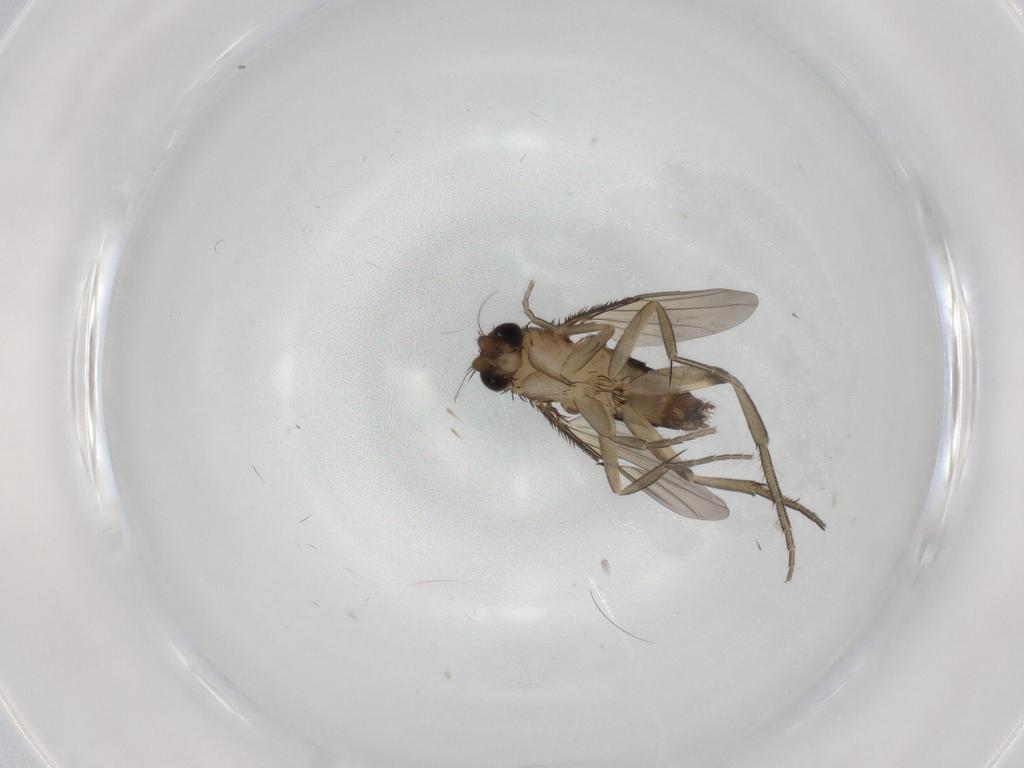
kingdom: Animalia
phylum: Arthropoda
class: Insecta
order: Diptera
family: Phoridae
